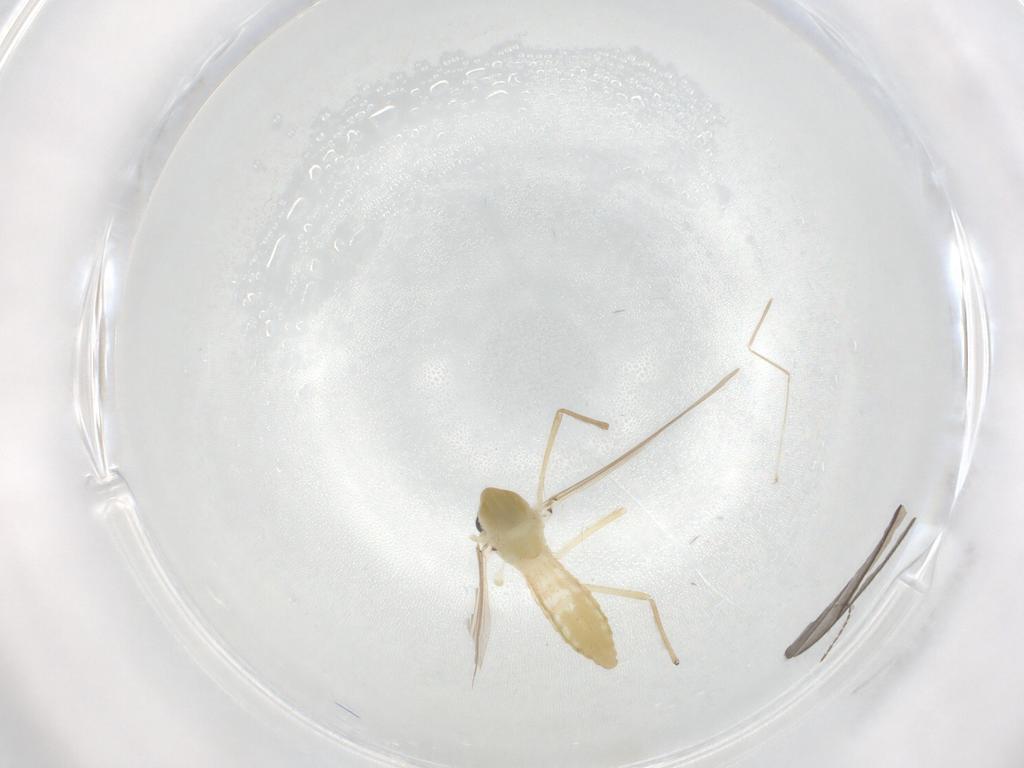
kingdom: Animalia
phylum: Arthropoda
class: Insecta
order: Diptera
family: Chironomidae
